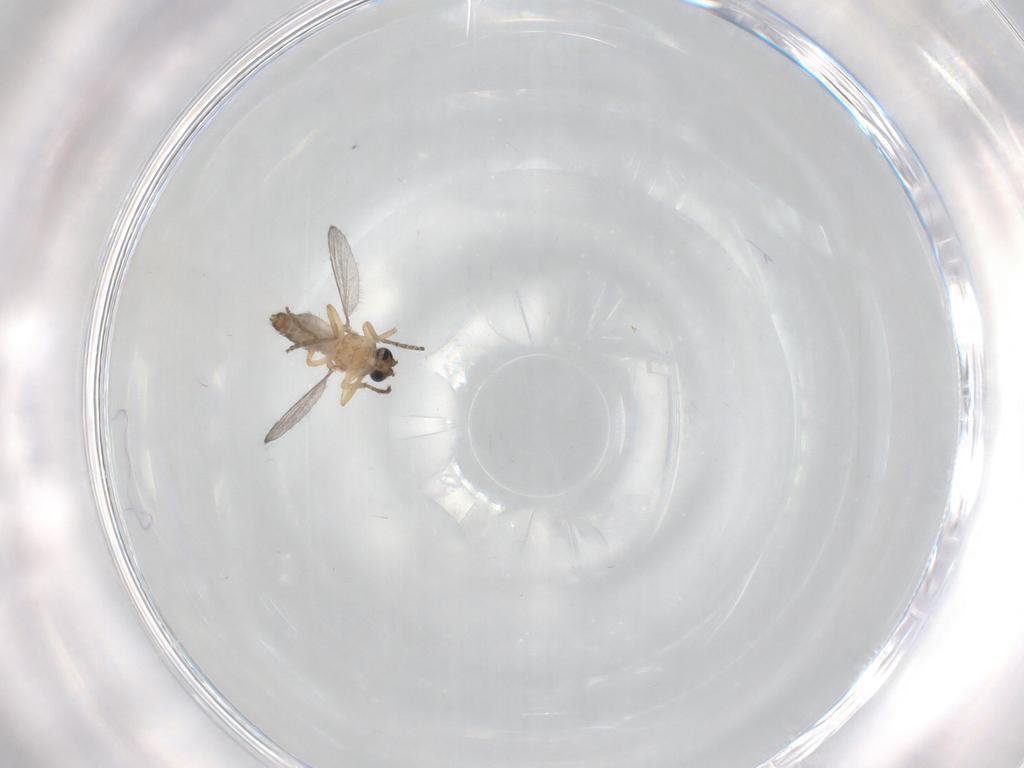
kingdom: Animalia
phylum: Arthropoda
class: Insecta
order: Diptera
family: Ceratopogonidae
